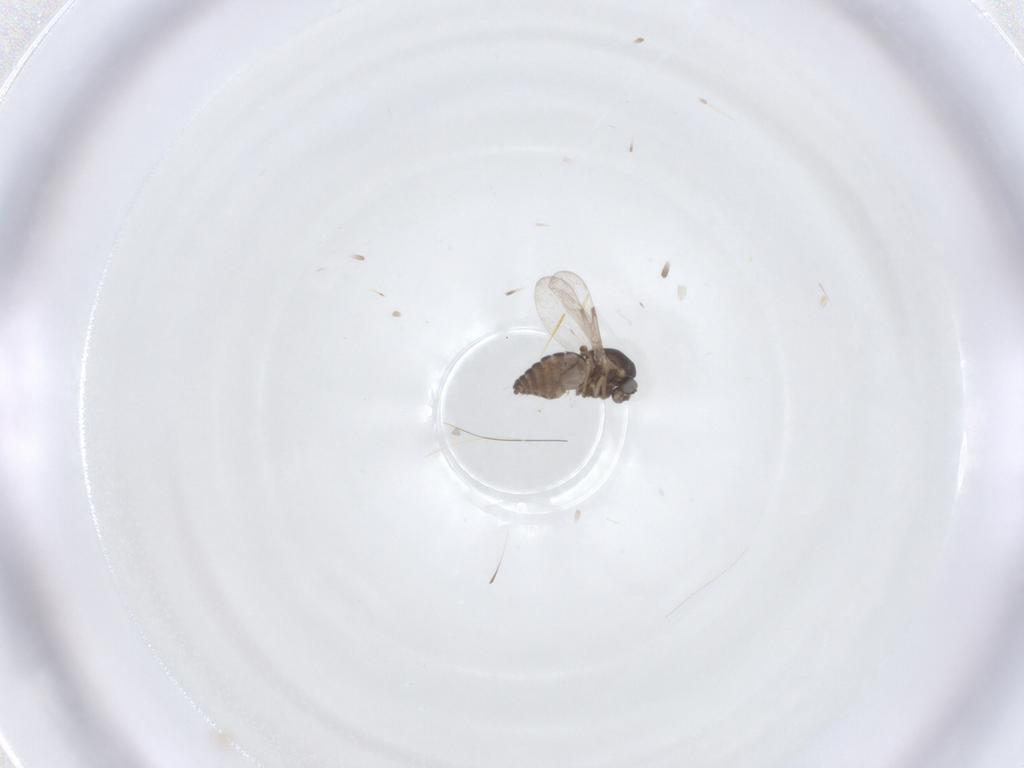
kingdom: Animalia
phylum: Arthropoda
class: Insecta
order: Diptera
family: Ceratopogonidae
